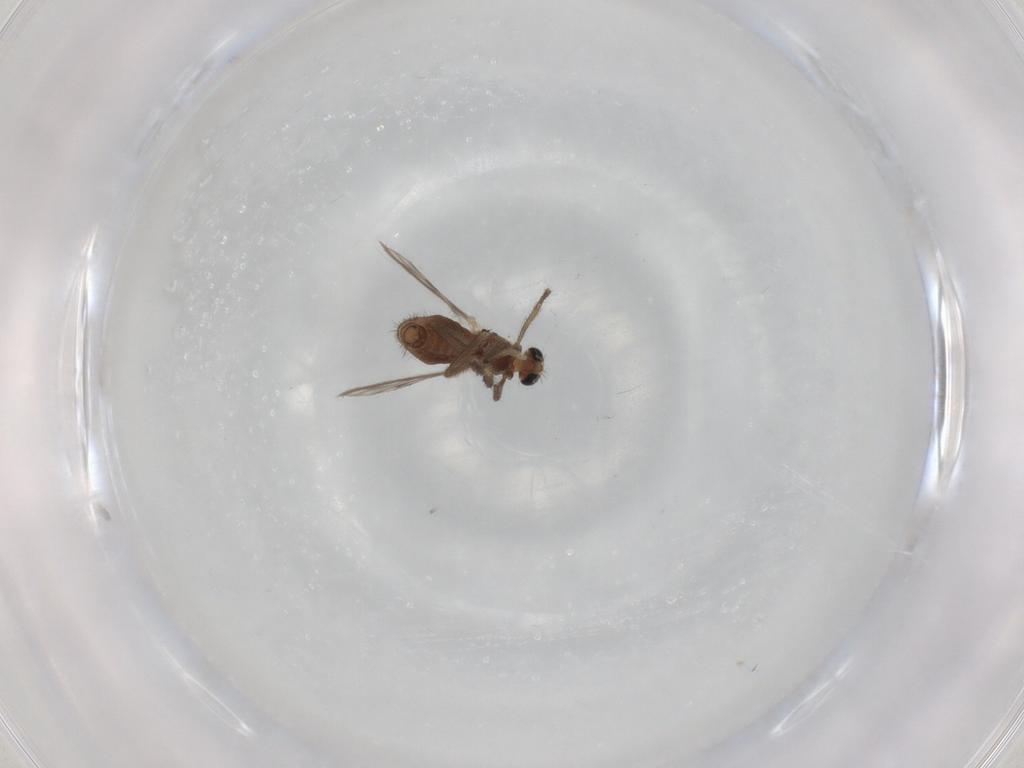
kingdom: Animalia
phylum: Arthropoda
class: Insecta
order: Diptera
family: Chironomidae
